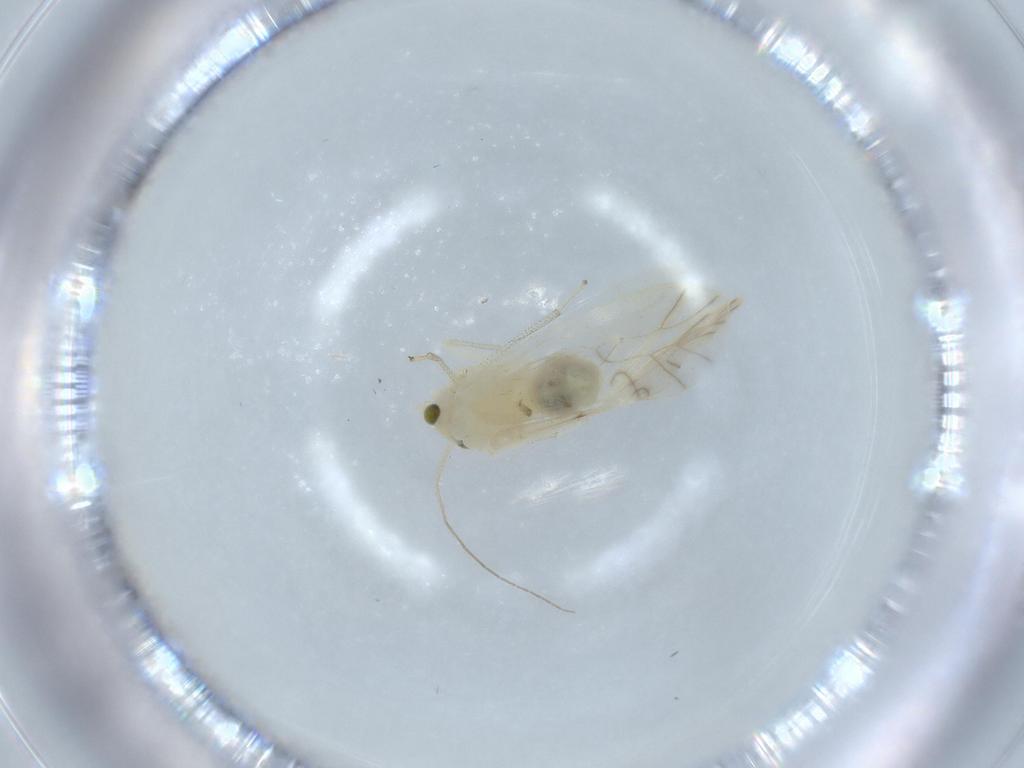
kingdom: Animalia
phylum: Arthropoda
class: Insecta
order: Psocodea
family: Caeciliusidae
